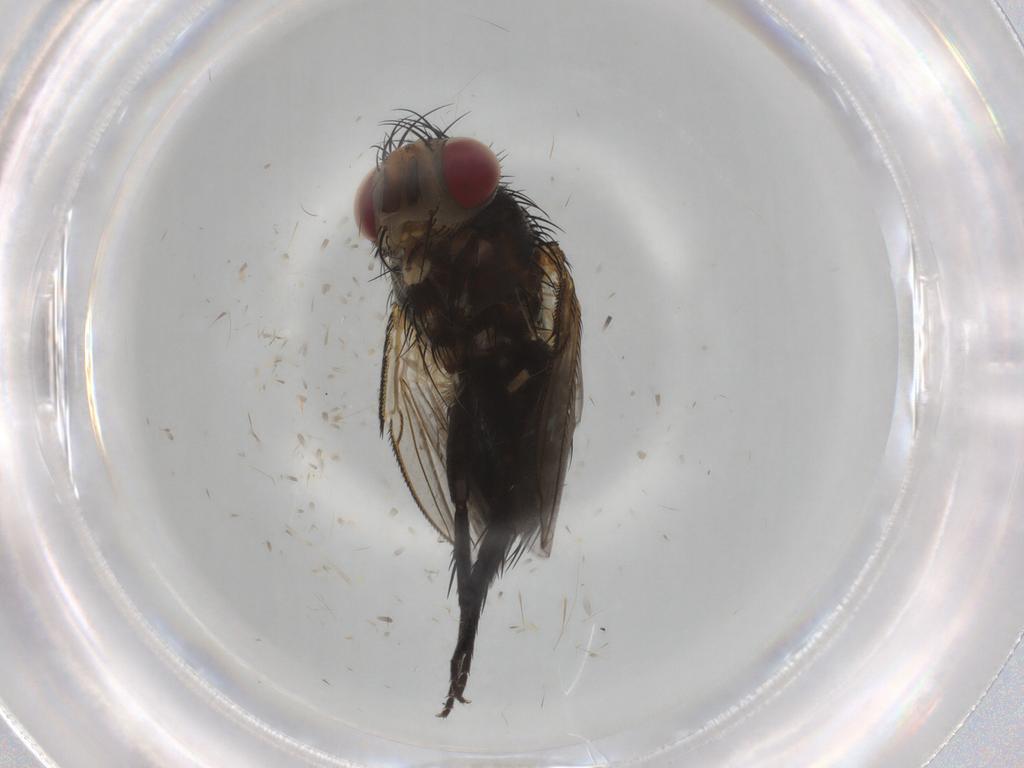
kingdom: Animalia
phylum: Arthropoda
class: Insecta
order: Diptera
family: Tachinidae
